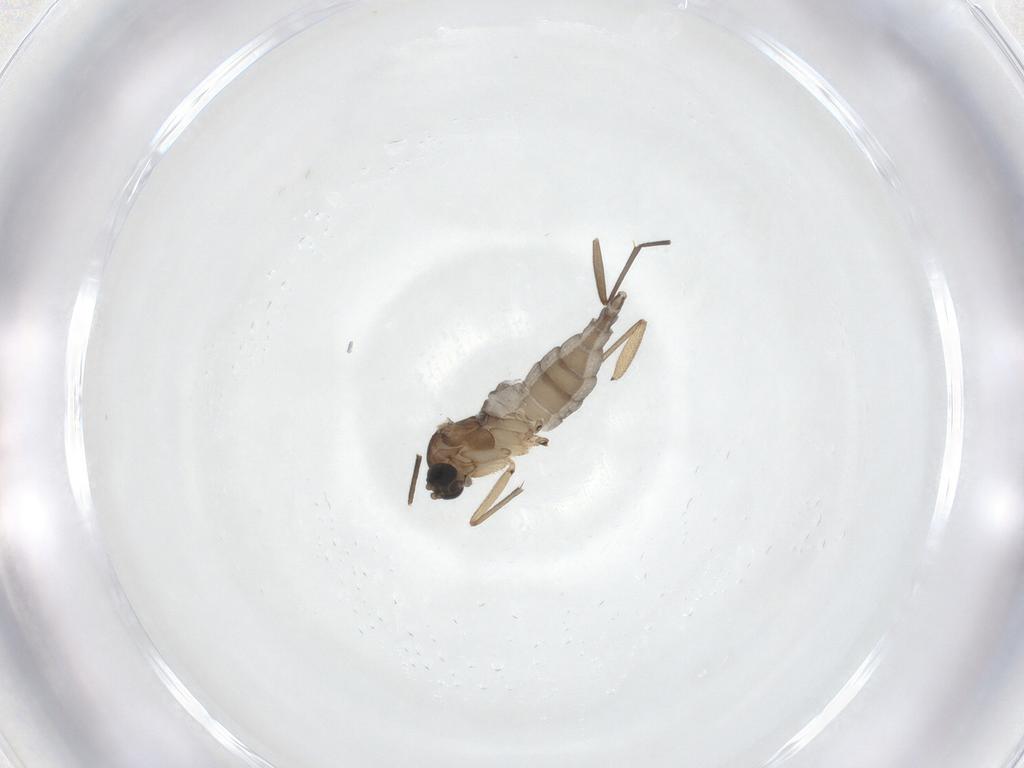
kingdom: Animalia
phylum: Arthropoda
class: Insecta
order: Diptera
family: Sciaridae
